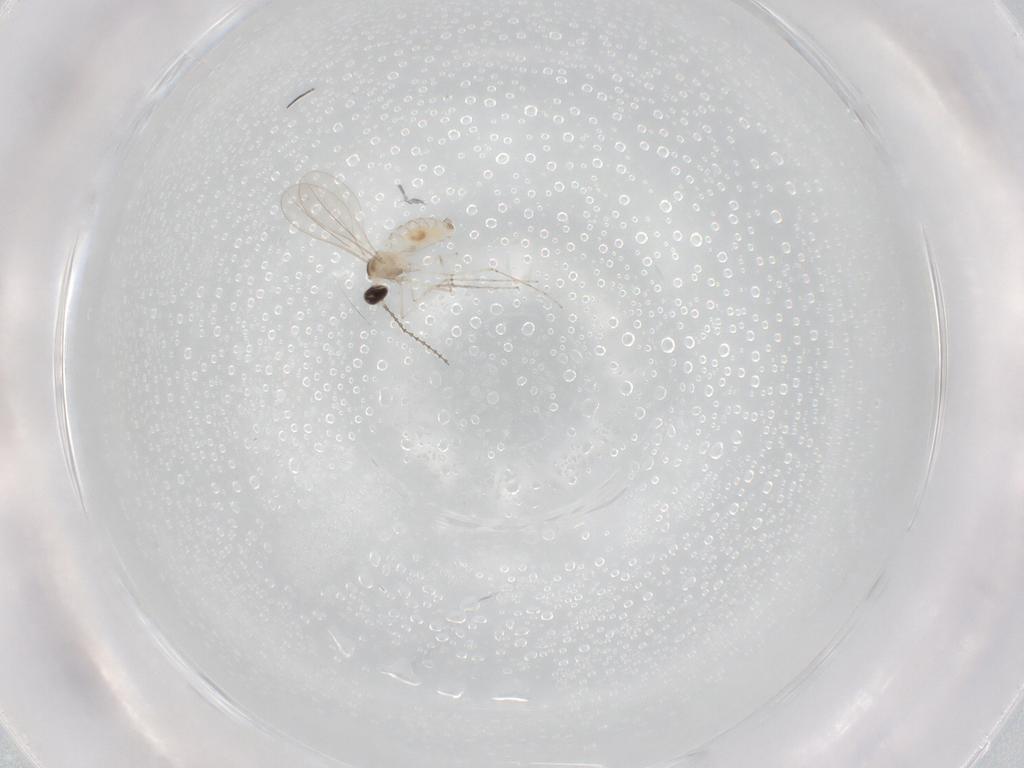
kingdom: Animalia
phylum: Arthropoda
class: Insecta
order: Diptera
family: Cecidomyiidae
